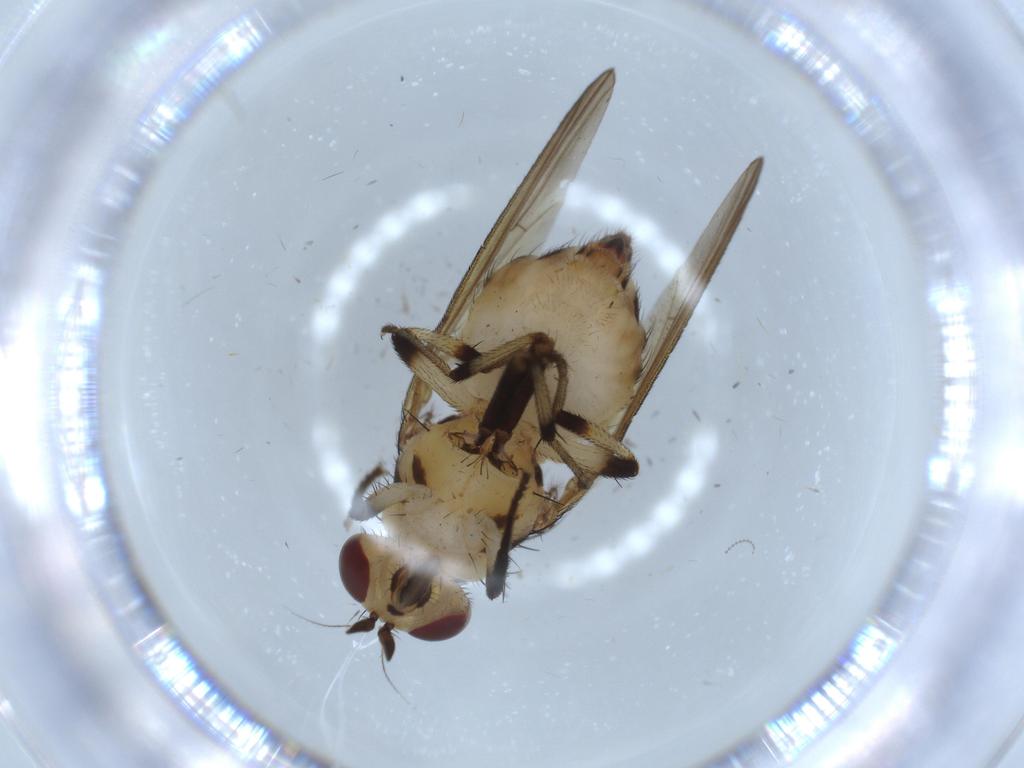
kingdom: Animalia
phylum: Arthropoda
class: Insecta
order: Diptera
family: Lauxaniidae
